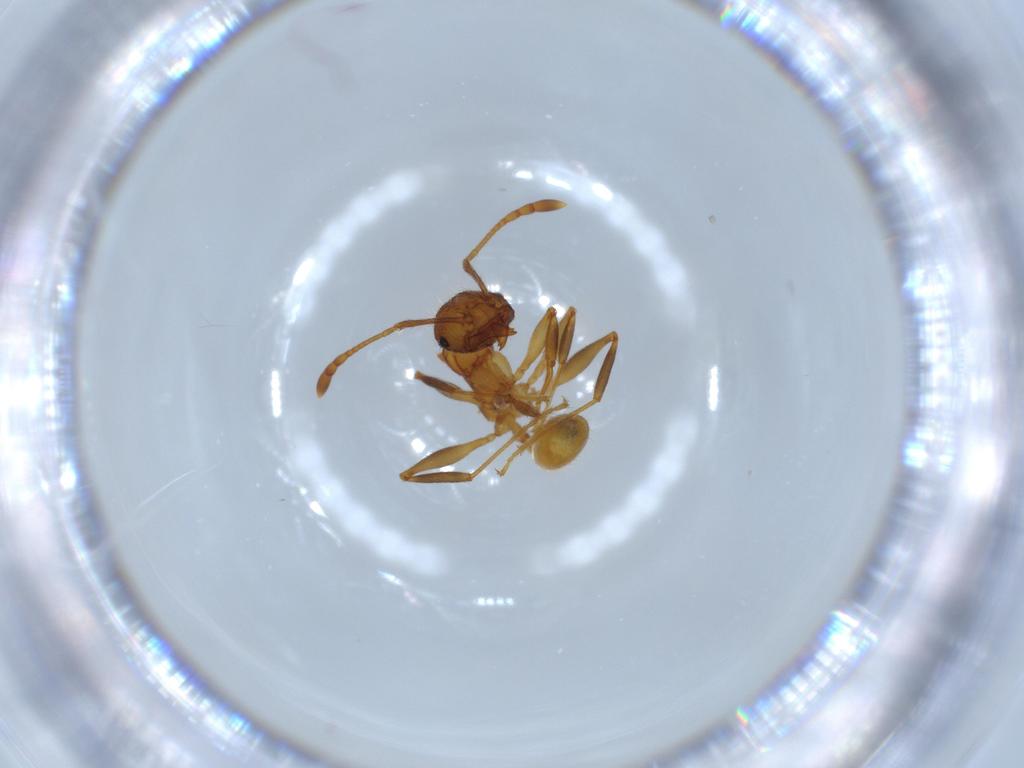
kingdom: Animalia
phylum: Arthropoda
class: Insecta
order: Hymenoptera
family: Formicidae
